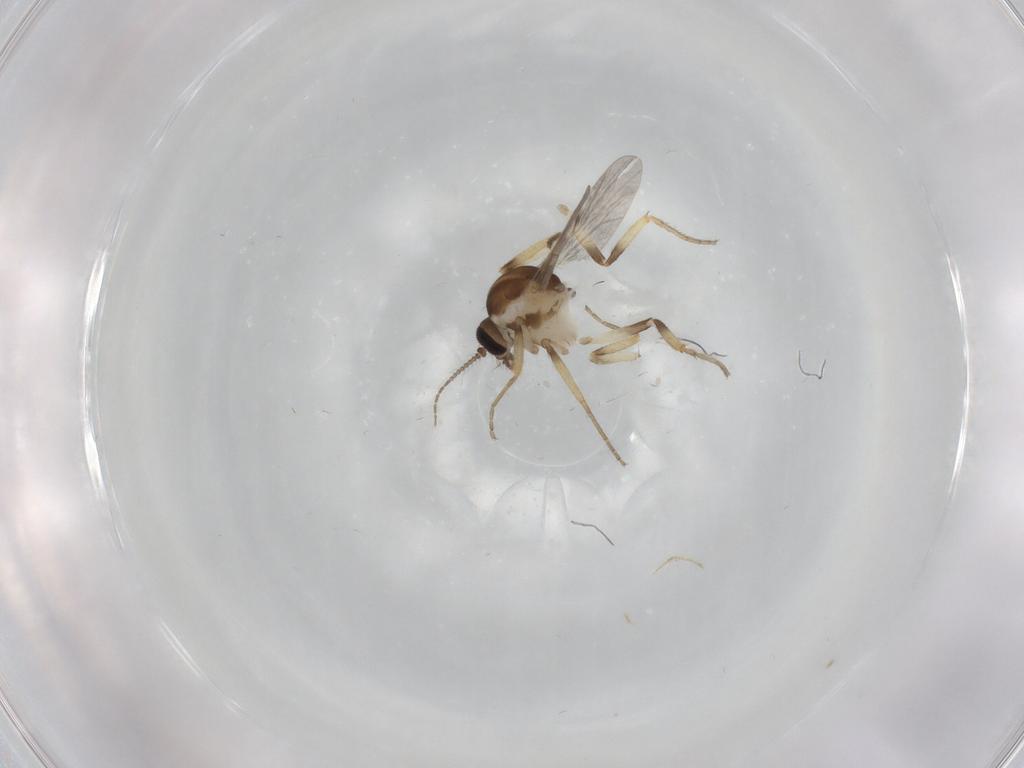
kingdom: Animalia
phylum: Arthropoda
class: Insecta
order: Diptera
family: Ceratopogonidae
